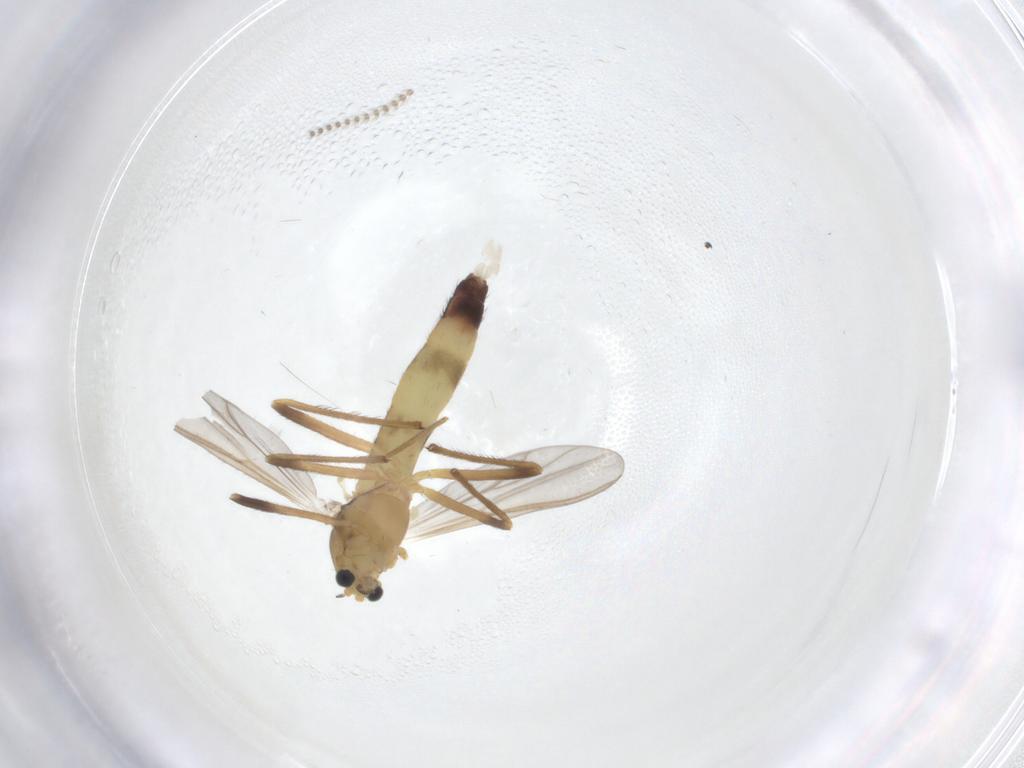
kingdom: Animalia
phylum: Arthropoda
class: Insecta
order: Diptera
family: Chironomidae
